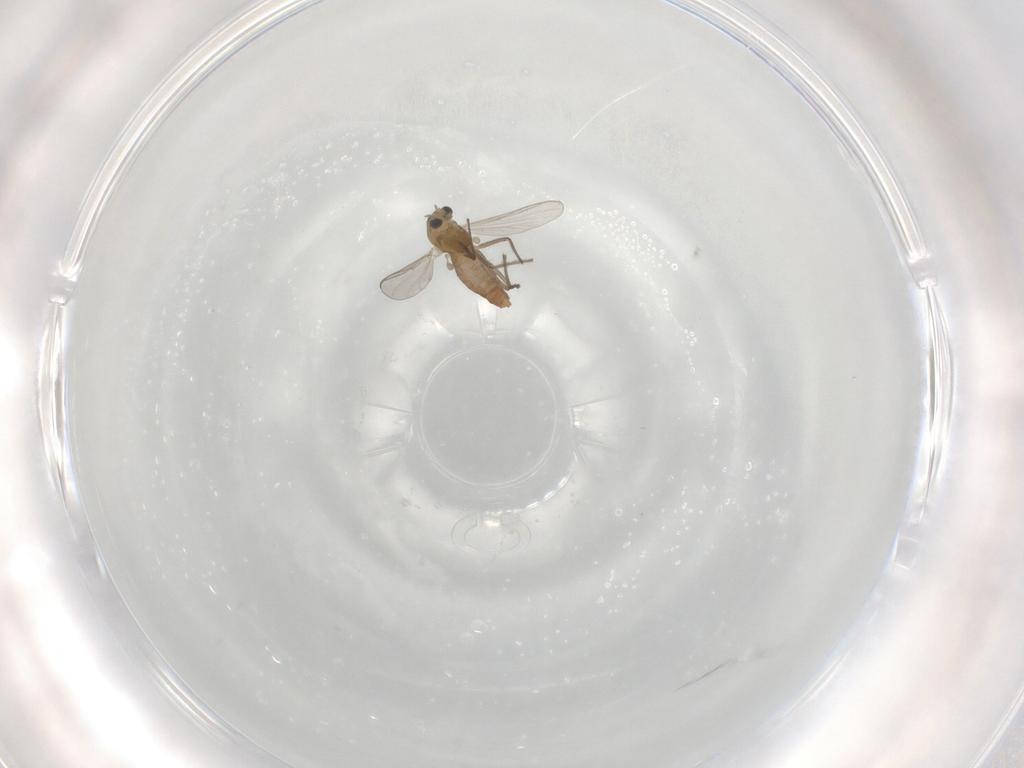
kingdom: Animalia
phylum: Arthropoda
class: Insecta
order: Diptera
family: Chironomidae
